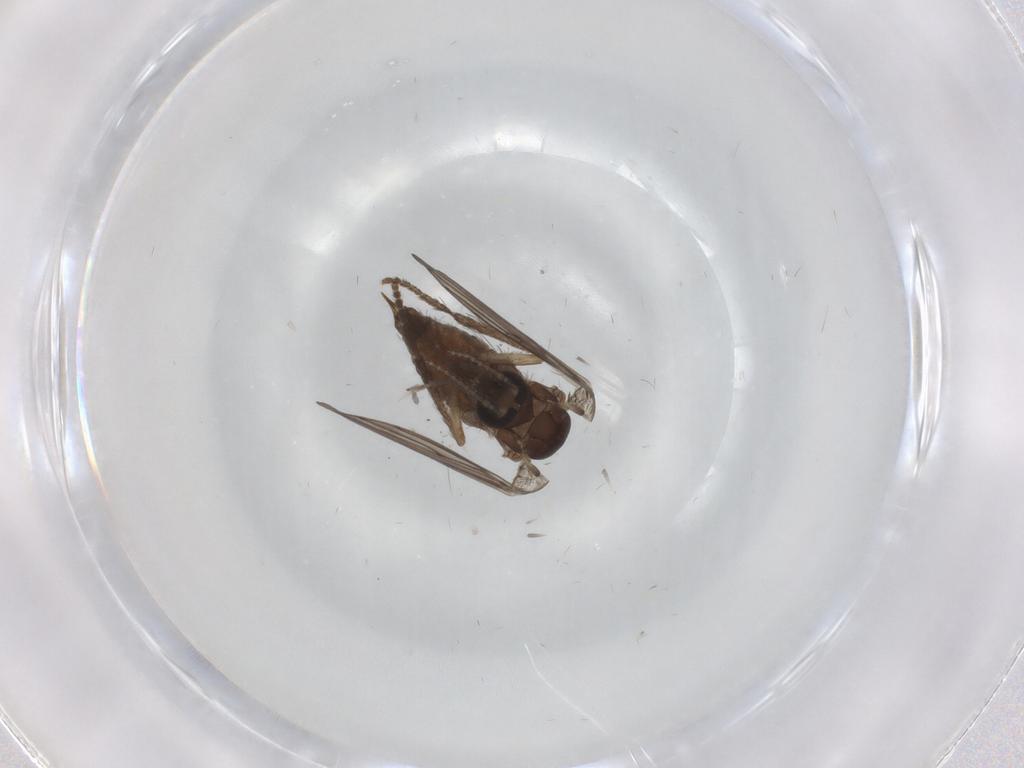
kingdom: Animalia
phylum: Arthropoda
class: Insecta
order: Diptera
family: Psychodidae
